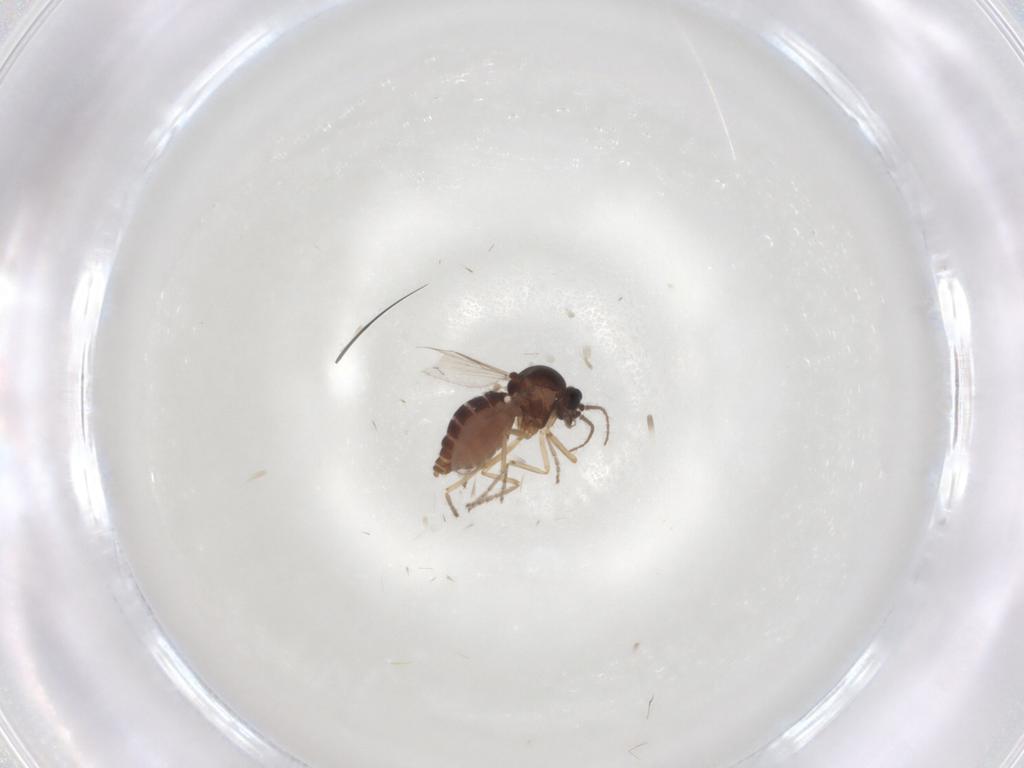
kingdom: Animalia
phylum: Arthropoda
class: Insecta
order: Diptera
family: Ceratopogonidae
